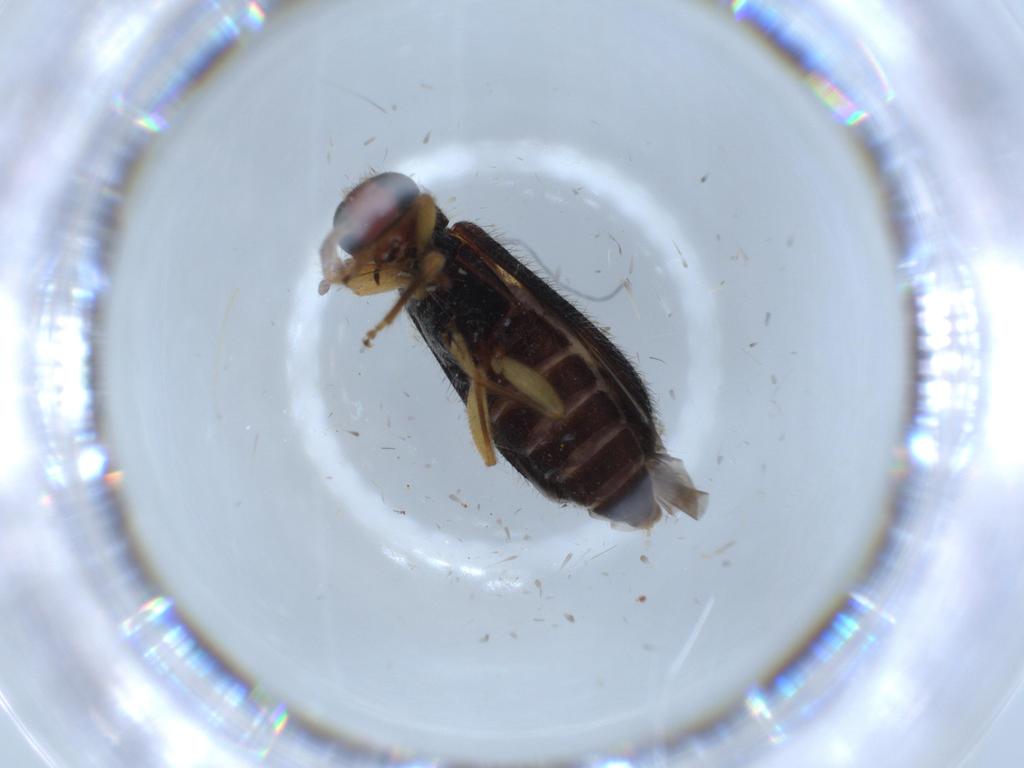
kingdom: Animalia
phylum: Arthropoda
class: Insecta
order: Coleoptera
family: Cleridae
